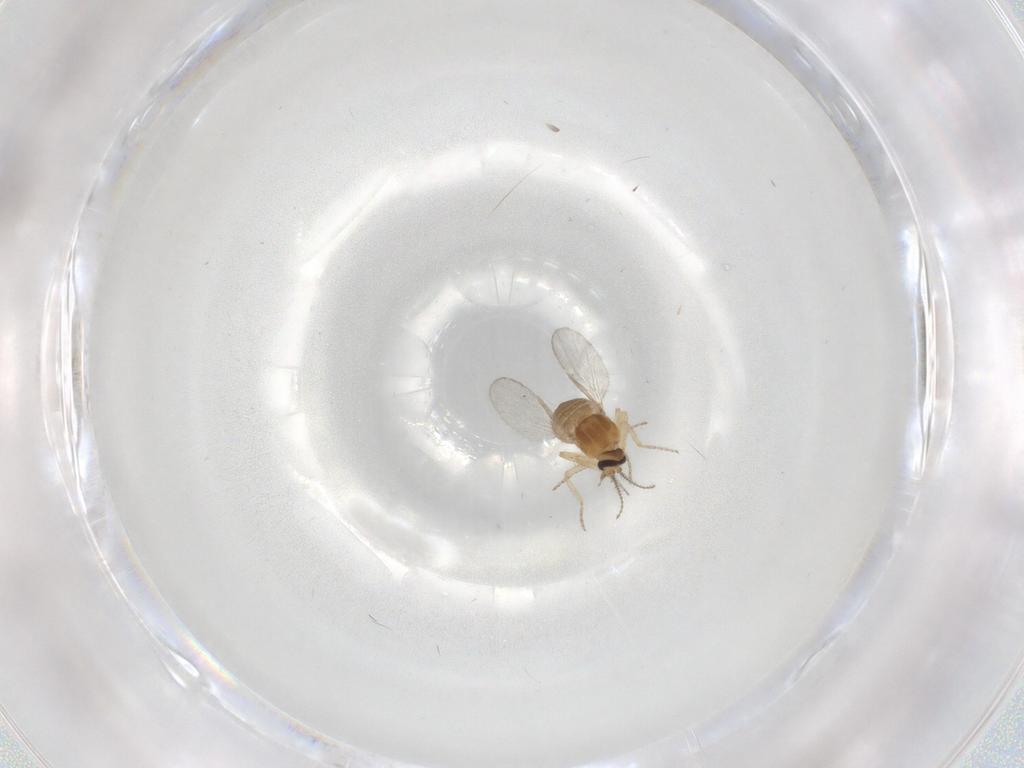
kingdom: Animalia
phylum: Arthropoda
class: Insecta
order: Diptera
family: Ceratopogonidae
